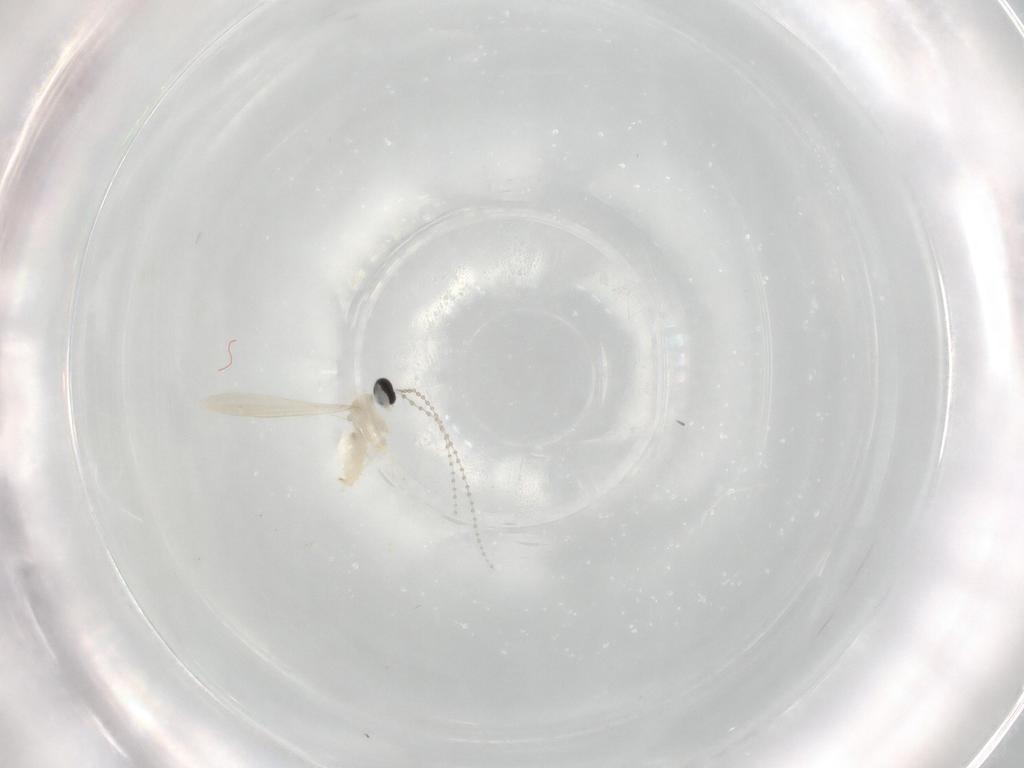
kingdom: Animalia
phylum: Arthropoda
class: Insecta
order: Diptera
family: Cecidomyiidae
